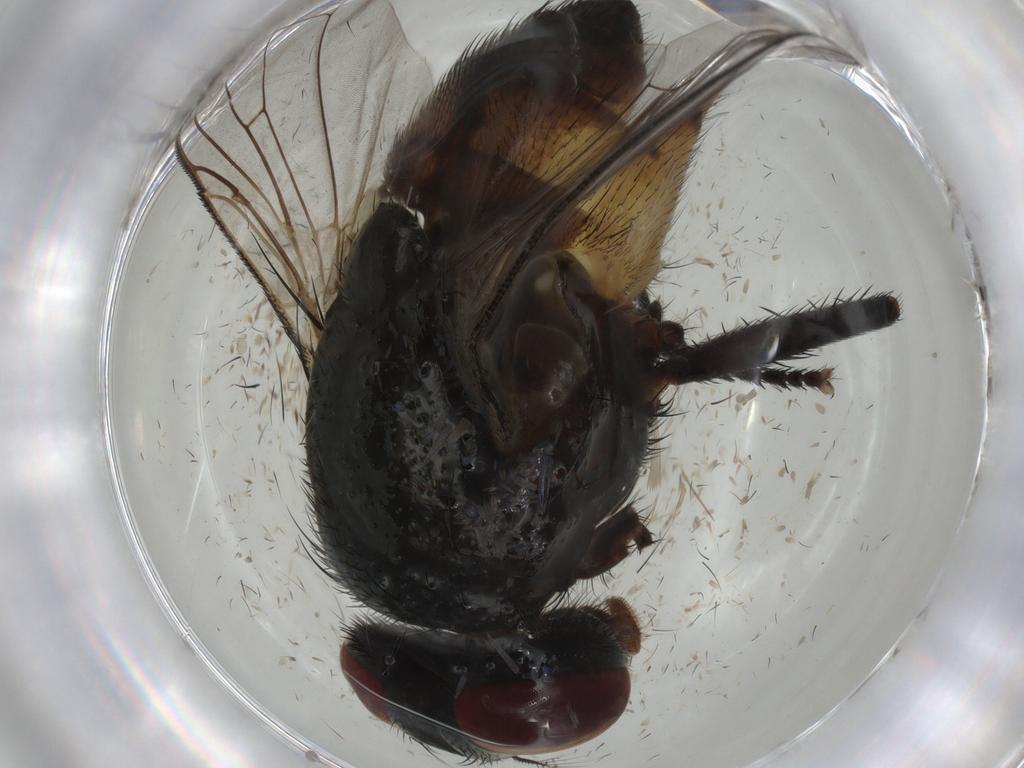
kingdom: Animalia
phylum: Arthropoda
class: Insecta
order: Diptera
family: Muscidae
